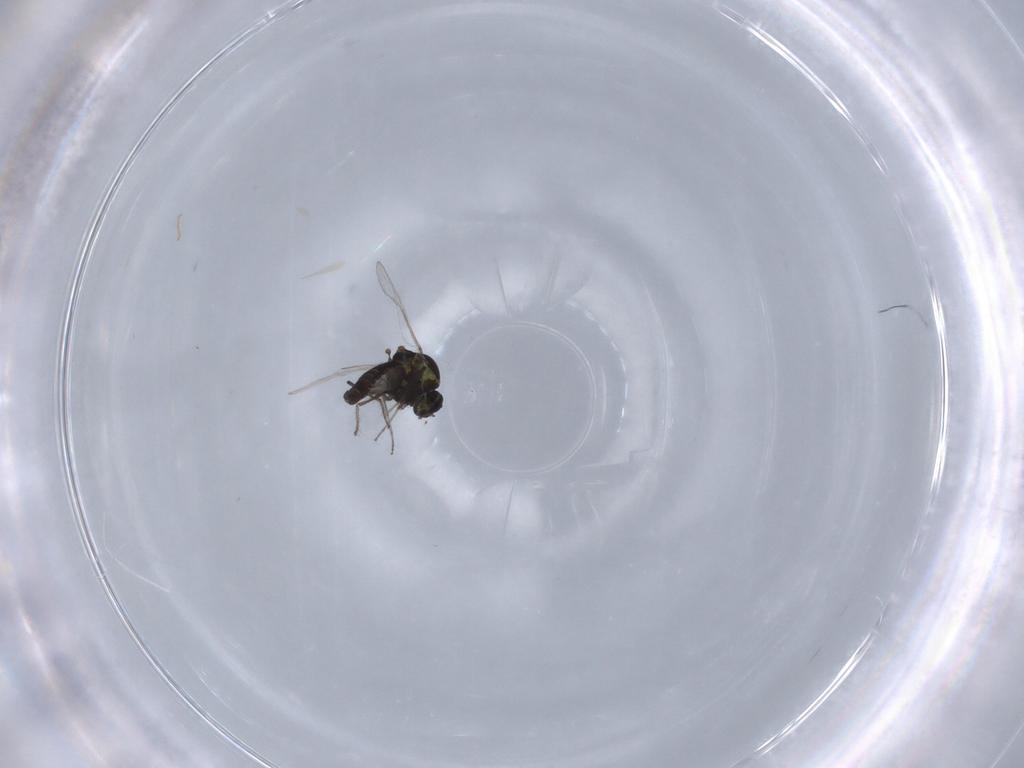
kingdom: Animalia
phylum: Arthropoda
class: Insecta
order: Diptera
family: Ceratopogonidae
